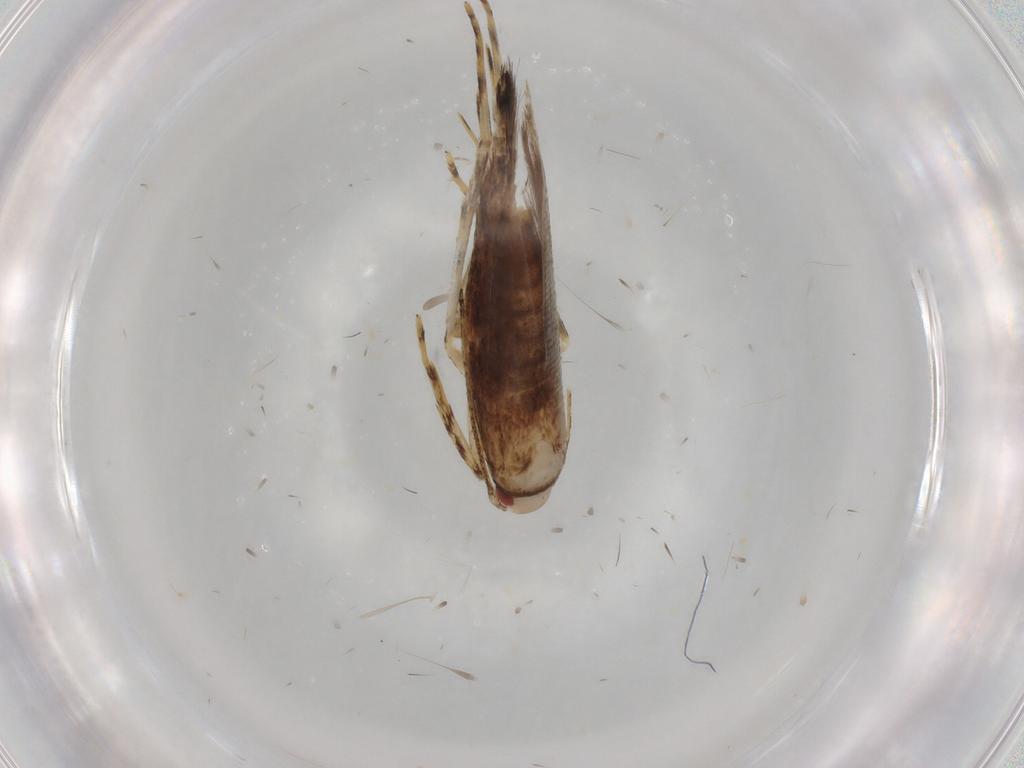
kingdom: Animalia
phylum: Arthropoda
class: Insecta
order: Lepidoptera
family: Cosmopterigidae
